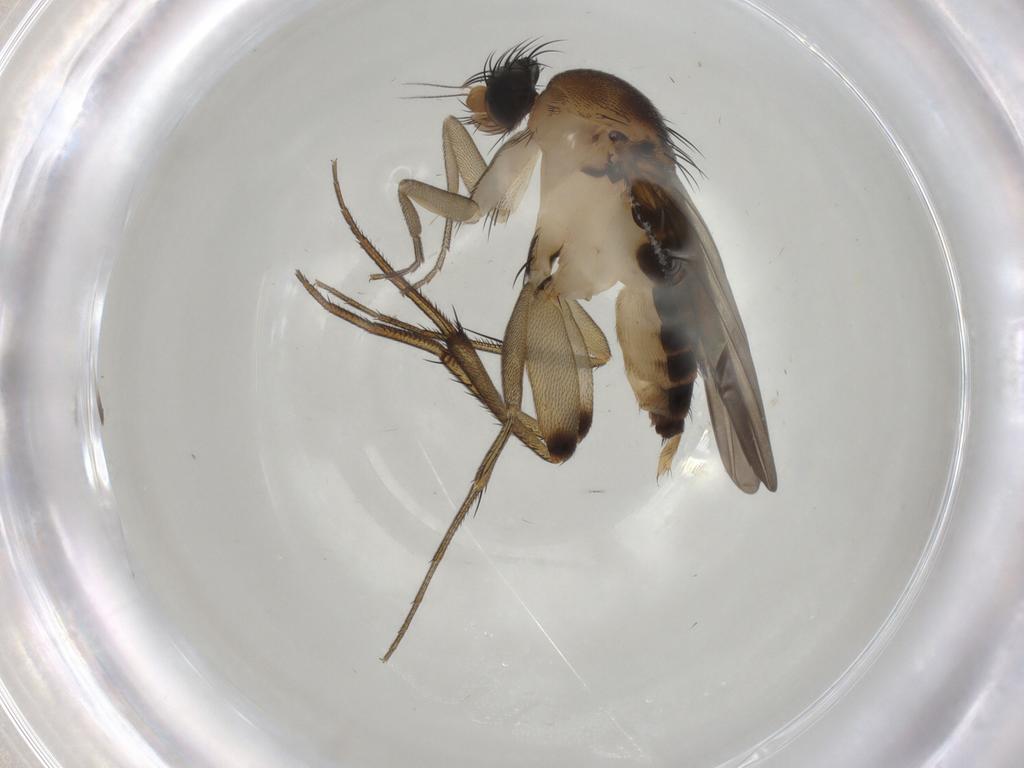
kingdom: Animalia
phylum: Arthropoda
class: Insecta
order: Diptera
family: Phoridae
